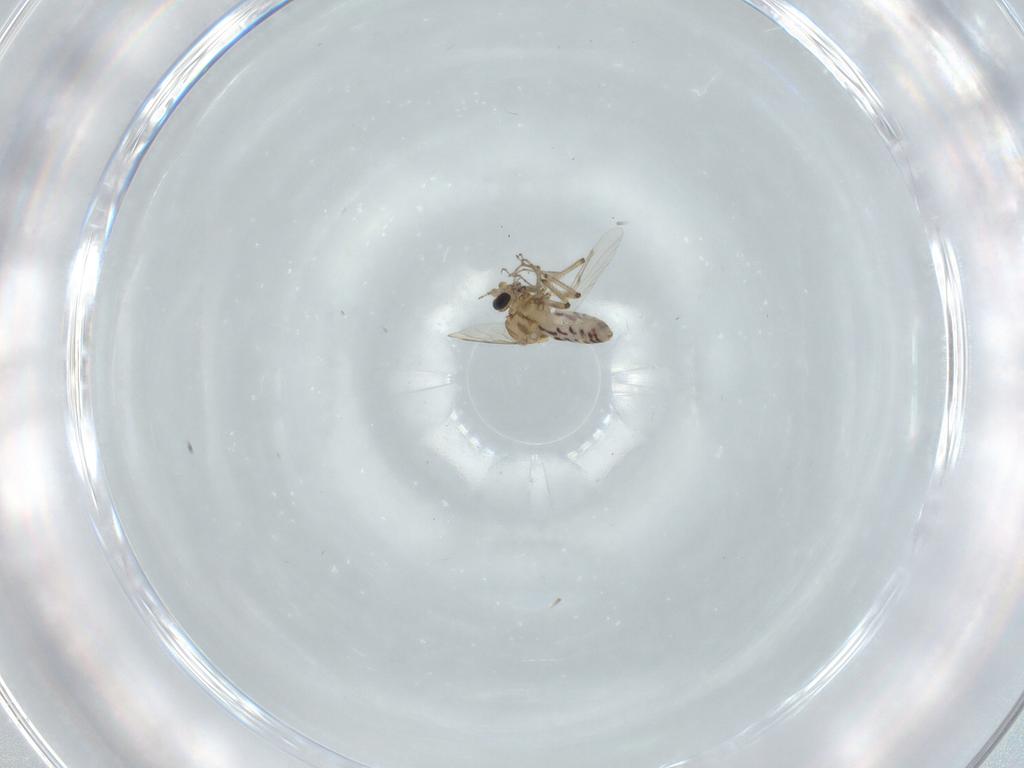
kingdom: Animalia
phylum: Arthropoda
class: Insecta
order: Diptera
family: Ceratopogonidae
